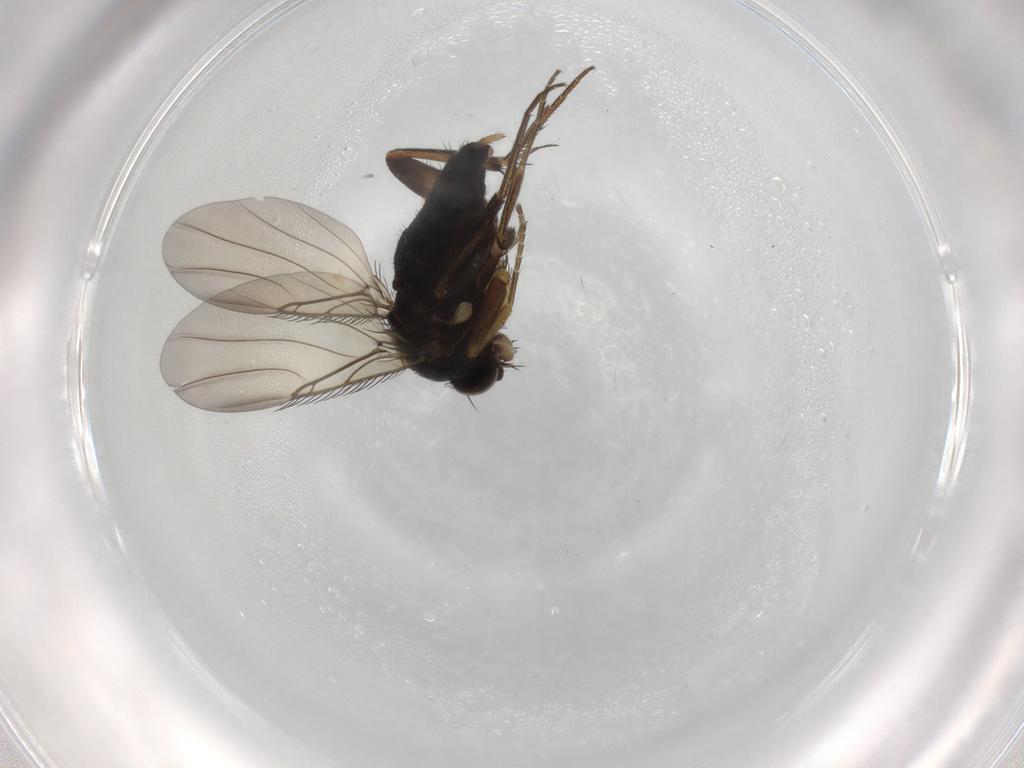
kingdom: Animalia
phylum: Arthropoda
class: Insecta
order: Diptera
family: Phoridae
